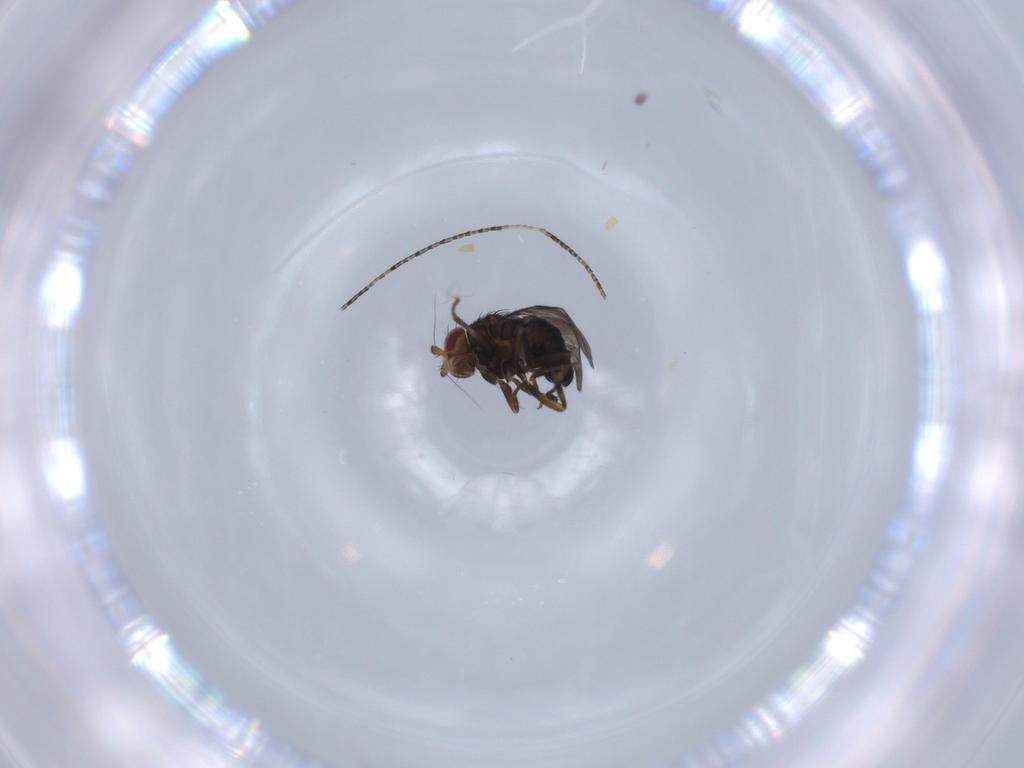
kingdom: Animalia
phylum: Arthropoda
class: Insecta
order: Diptera
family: Sphaeroceridae
